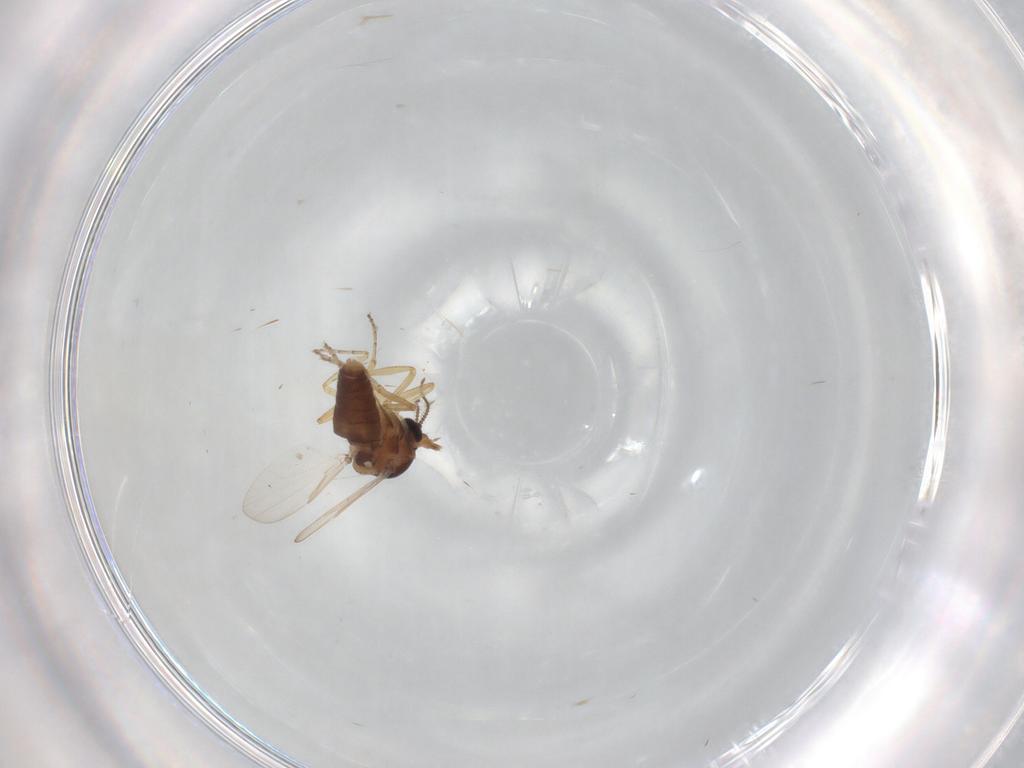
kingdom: Animalia
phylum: Arthropoda
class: Insecta
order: Diptera
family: Ceratopogonidae
